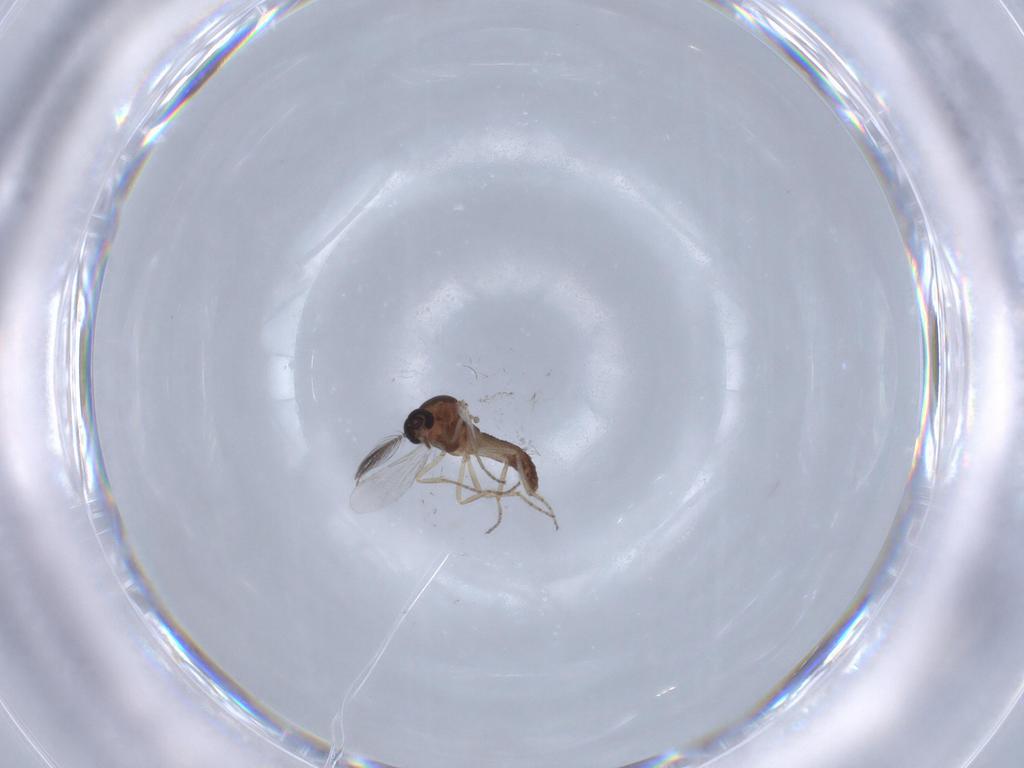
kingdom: Animalia
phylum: Arthropoda
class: Insecta
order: Diptera
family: Ceratopogonidae
